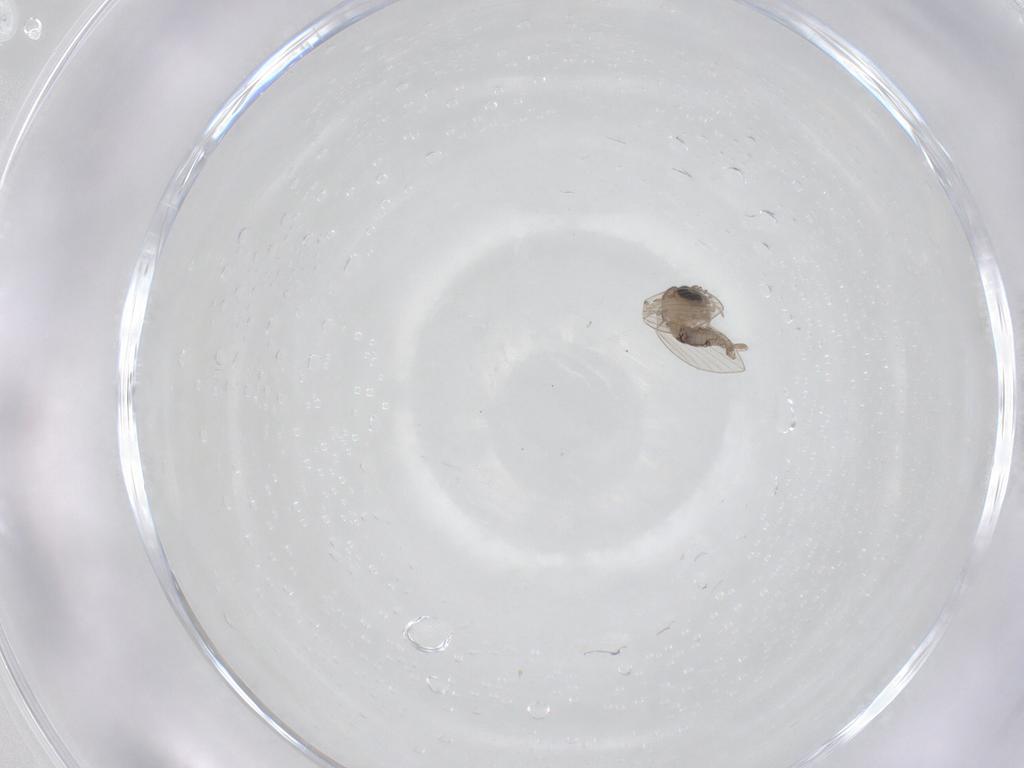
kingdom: Animalia
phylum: Arthropoda
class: Insecta
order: Diptera
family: Psychodidae
